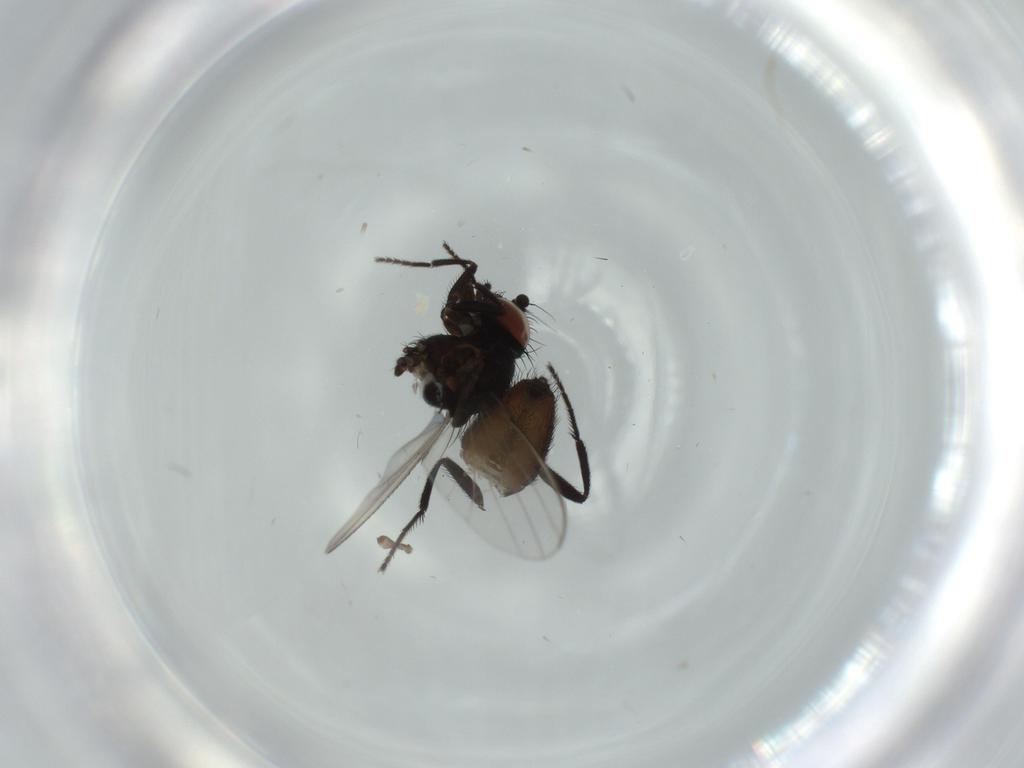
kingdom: Animalia
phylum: Arthropoda
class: Insecta
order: Diptera
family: Milichiidae
